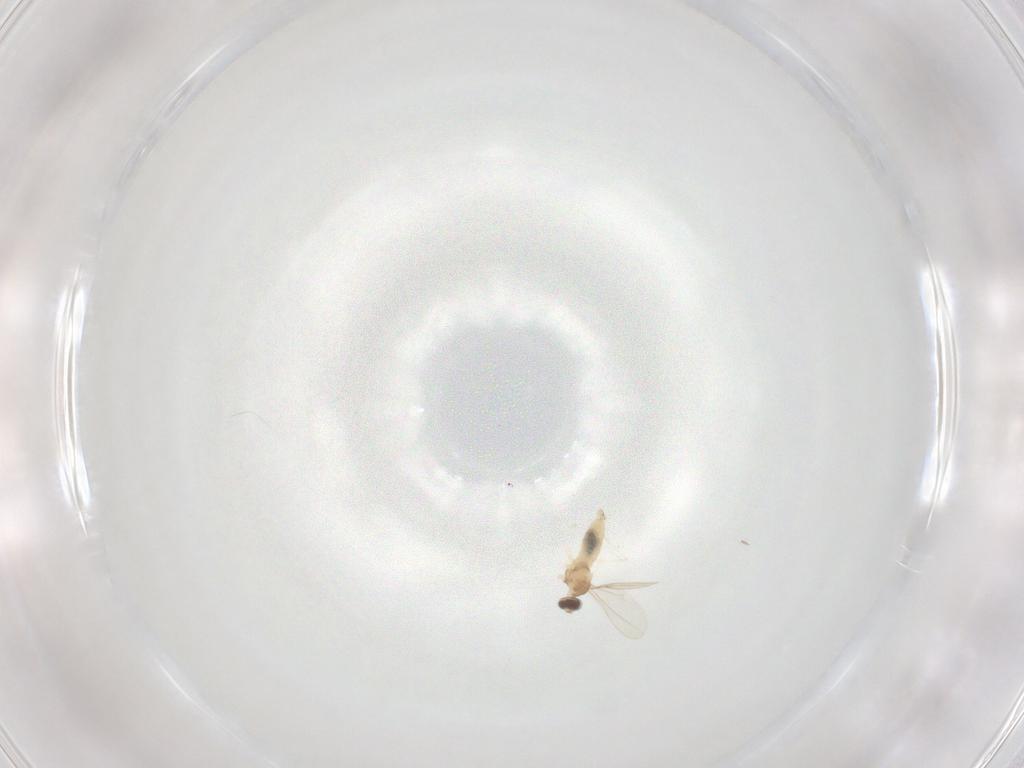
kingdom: Animalia
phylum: Arthropoda
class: Insecta
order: Diptera
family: Cecidomyiidae
